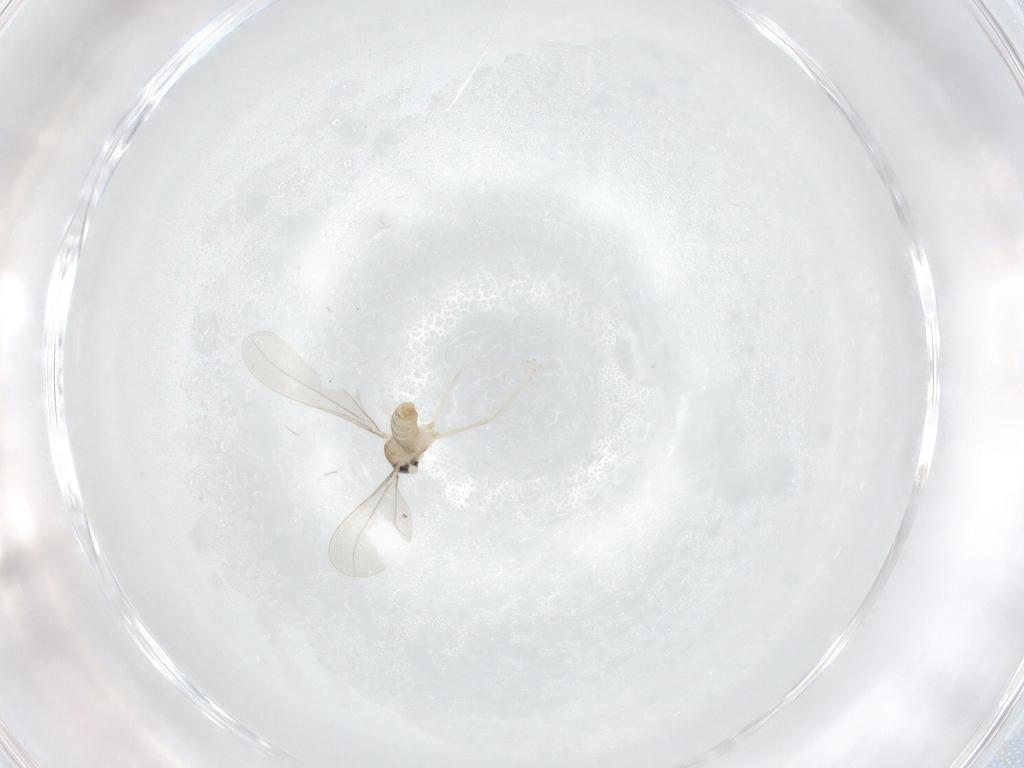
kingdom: Animalia
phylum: Arthropoda
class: Insecta
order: Diptera
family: Cecidomyiidae
